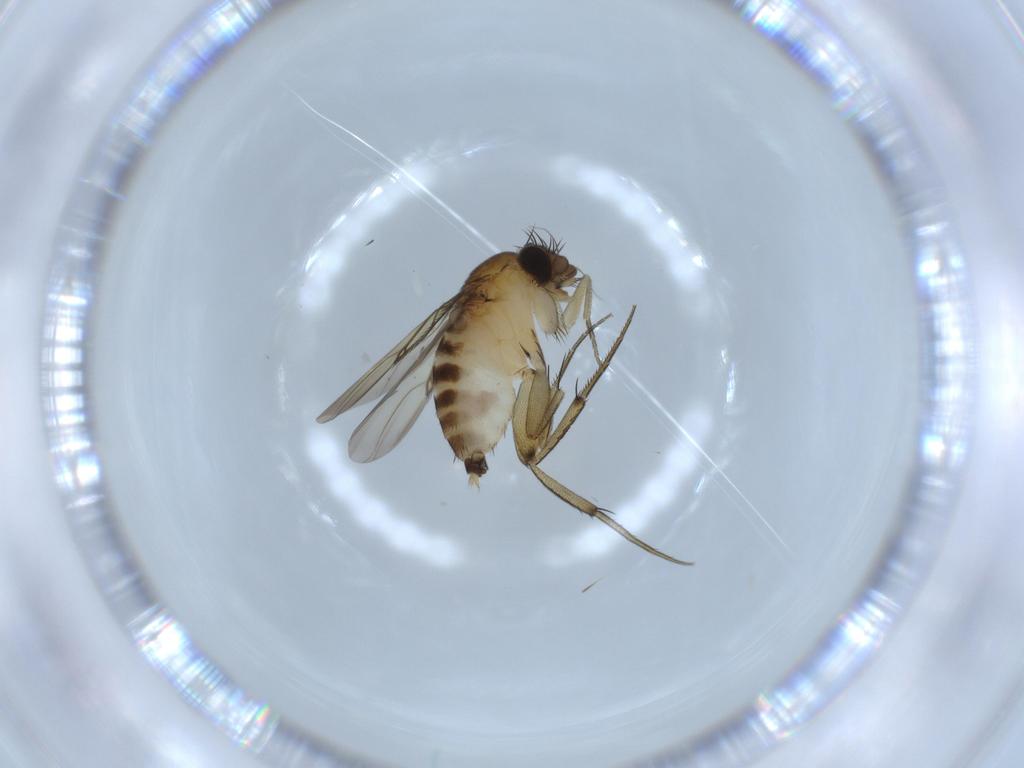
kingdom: Animalia
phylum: Arthropoda
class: Insecta
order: Diptera
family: Phoridae
